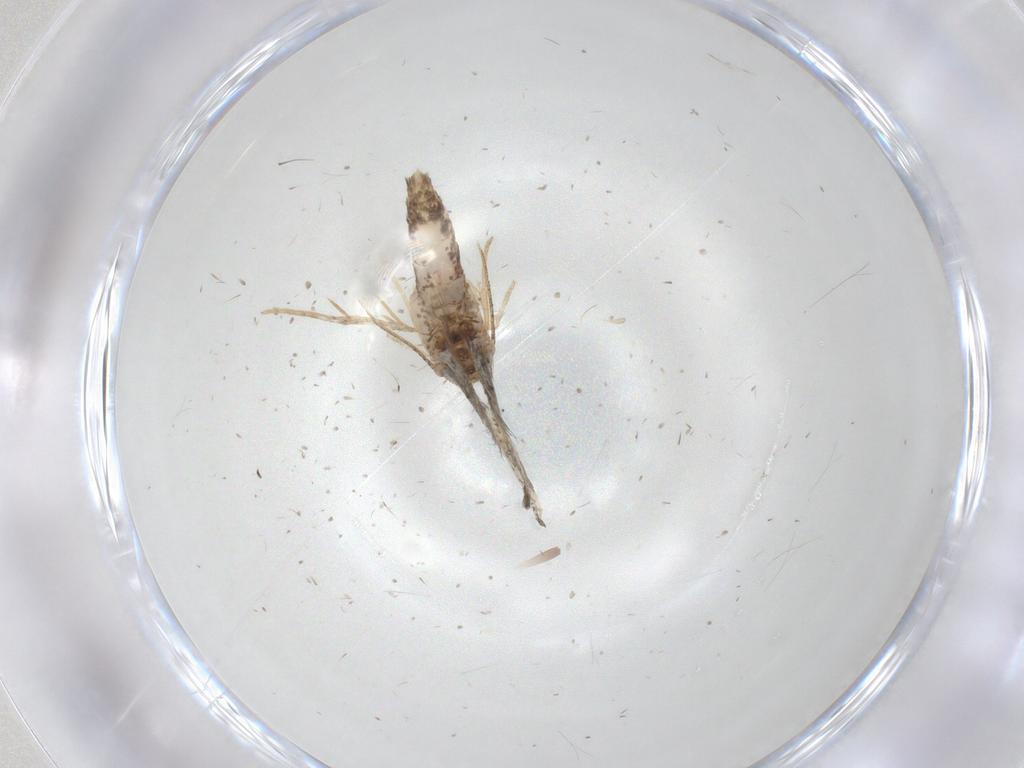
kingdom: Animalia
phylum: Arthropoda
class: Insecta
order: Lepidoptera
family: Elachistidae
